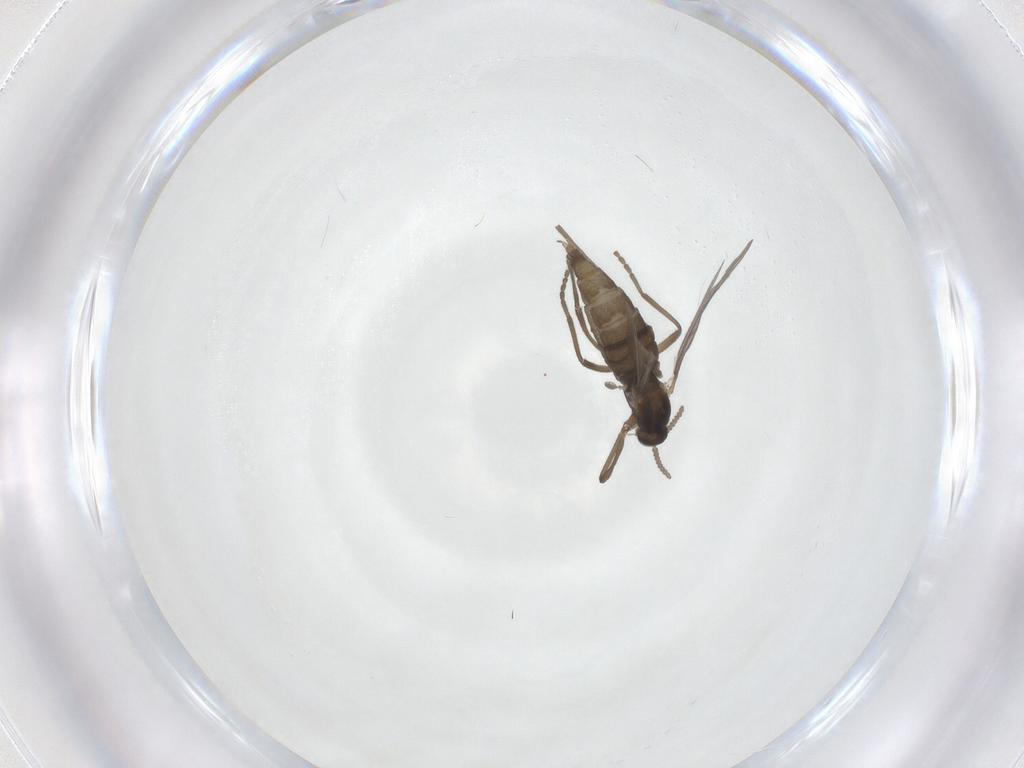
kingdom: Animalia
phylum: Arthropoda
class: Insecta
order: Diptera
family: Cecidomyiidae
